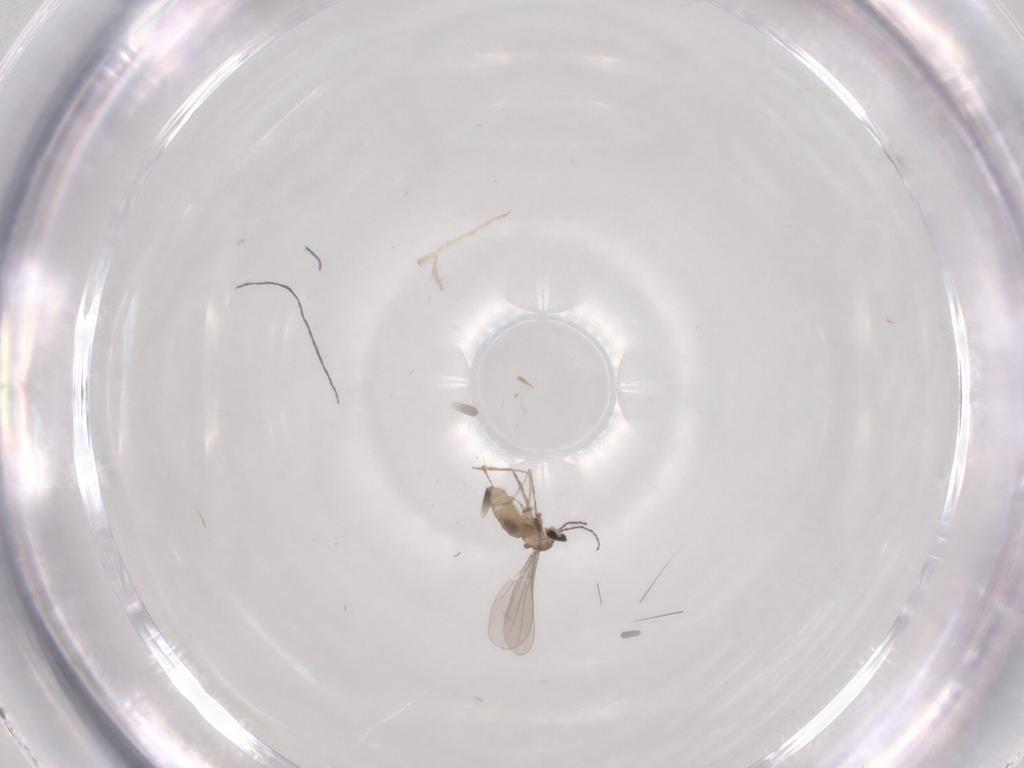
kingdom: Animalia
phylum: Arthropoda
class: Insecta
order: Diptera
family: Cecidomyiidae
